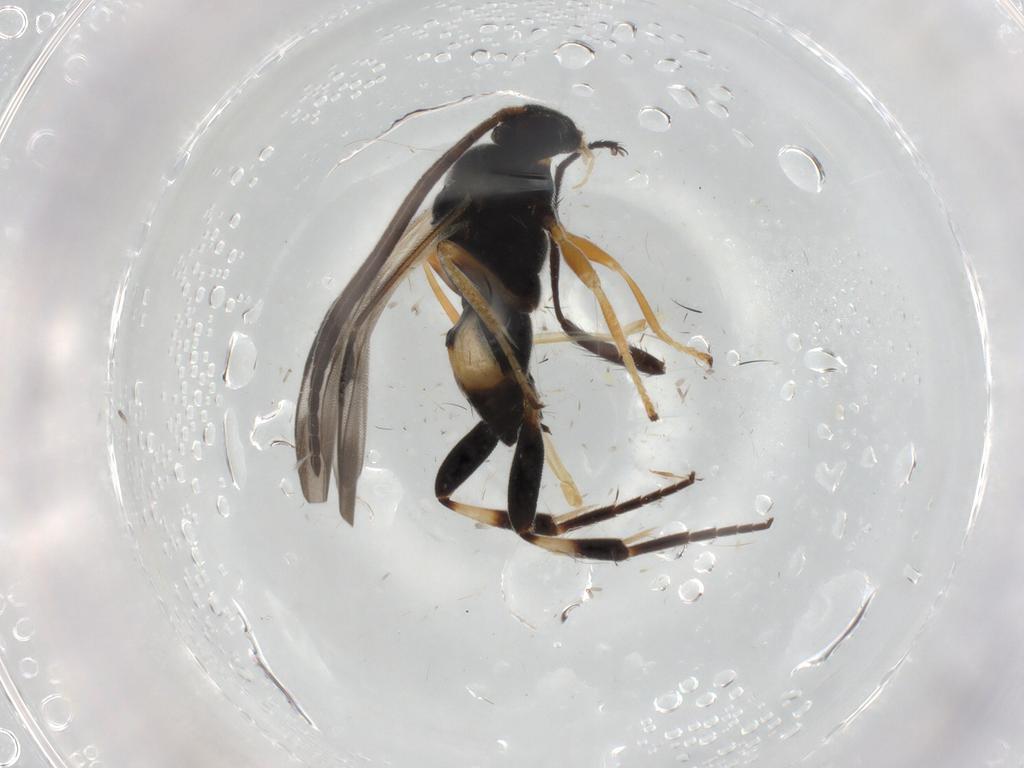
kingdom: Animalia
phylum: Arthropoda
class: Insecta
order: Hymenoptera
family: Braconidae
